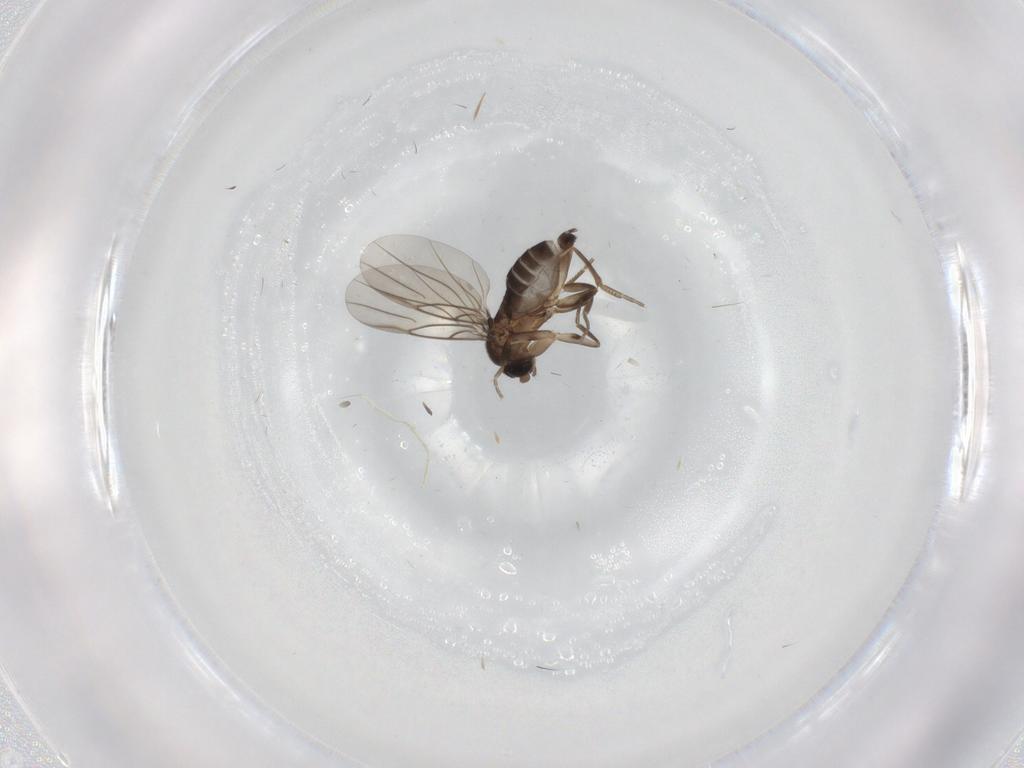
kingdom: Animalia
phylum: Arthropoda
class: Insecta
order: Diptera
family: Phoridae
